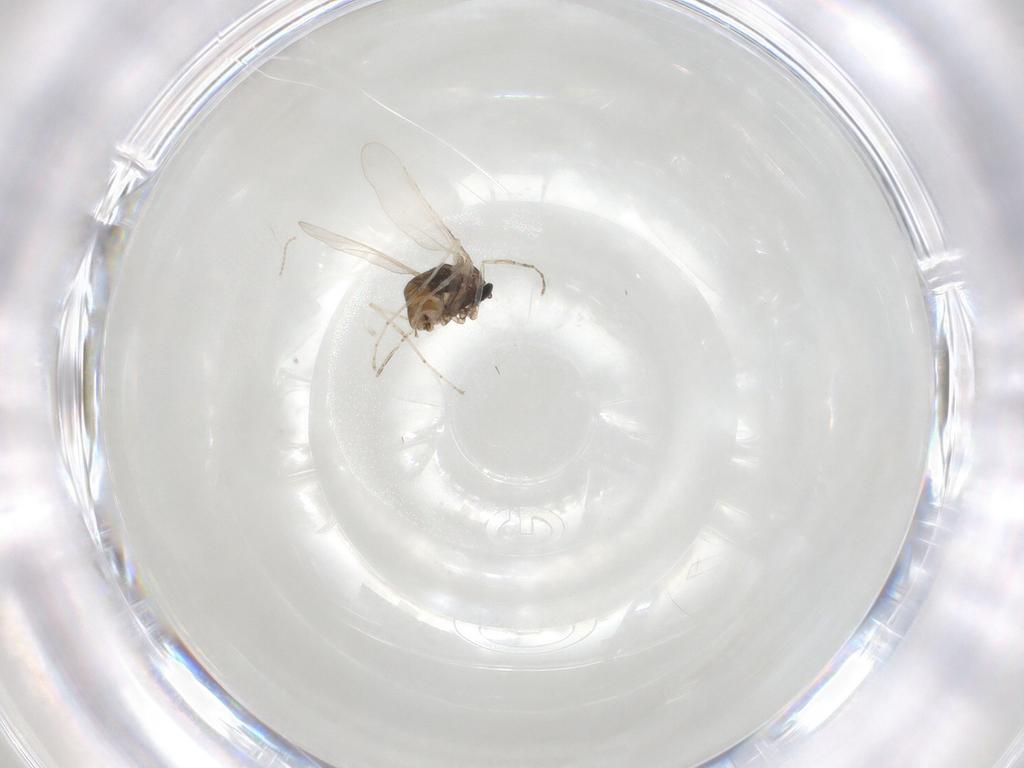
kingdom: Animalia
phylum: Arthropoda
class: Insecta
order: Diptera
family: Cecidomyiidae
